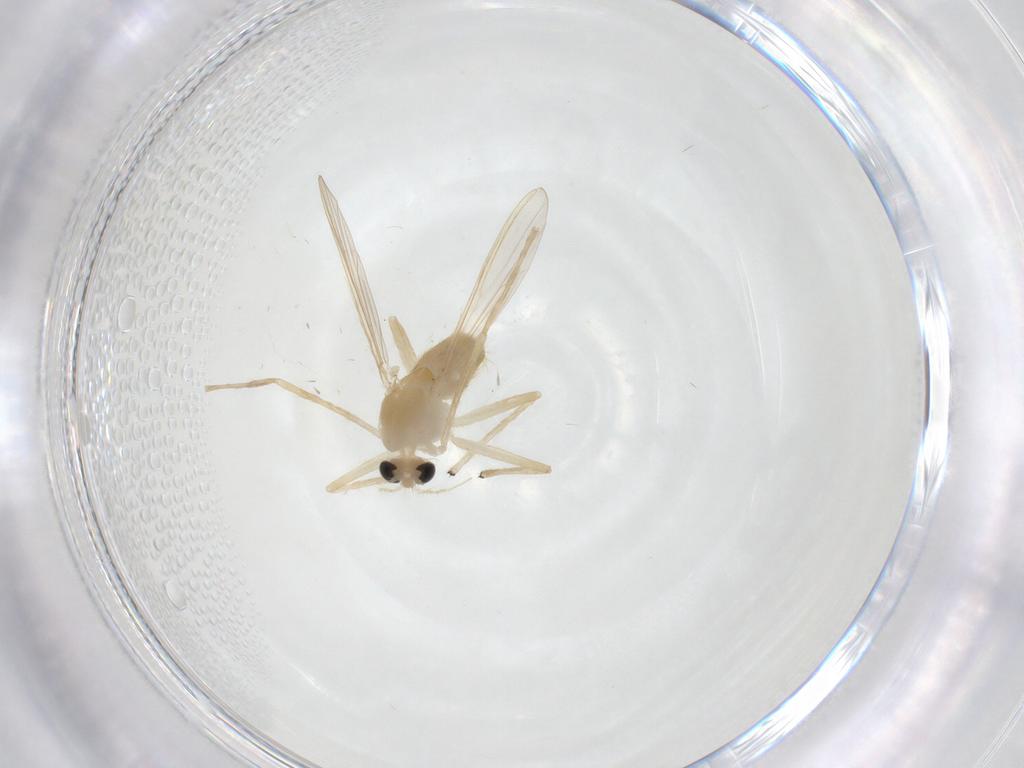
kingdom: Animalia
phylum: Arthropoda
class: Insecta
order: Diptera
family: Chironomidae
